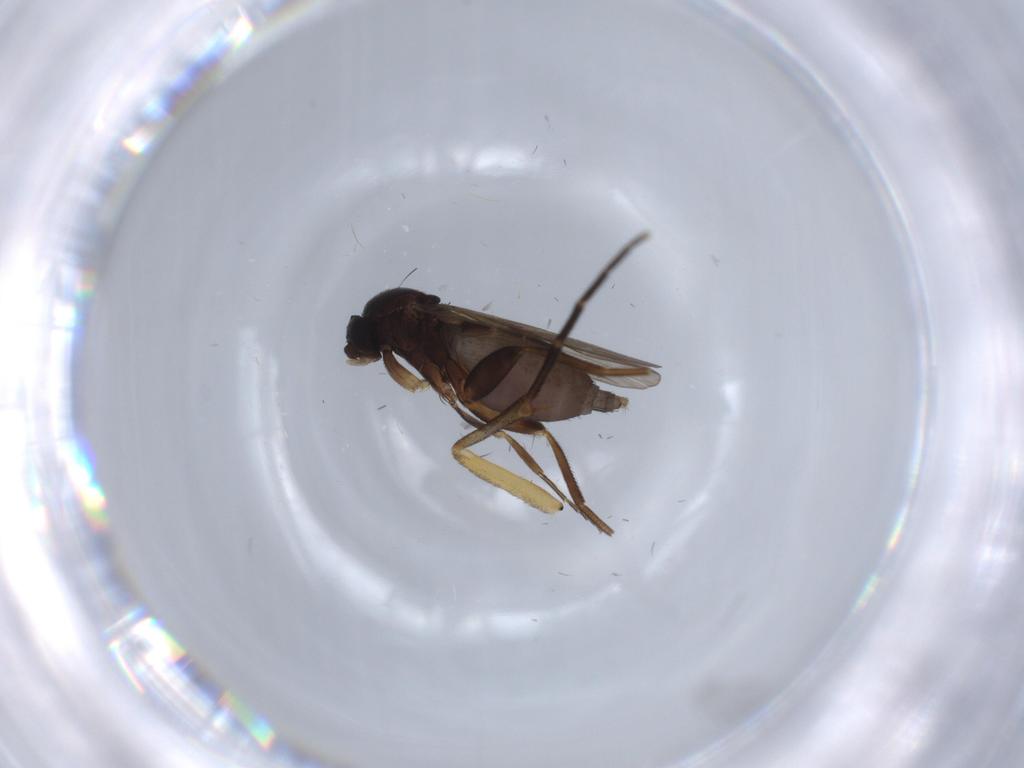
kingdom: Animalia
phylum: Arthropoda
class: Insecta
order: Diptera
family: Sciaridae
